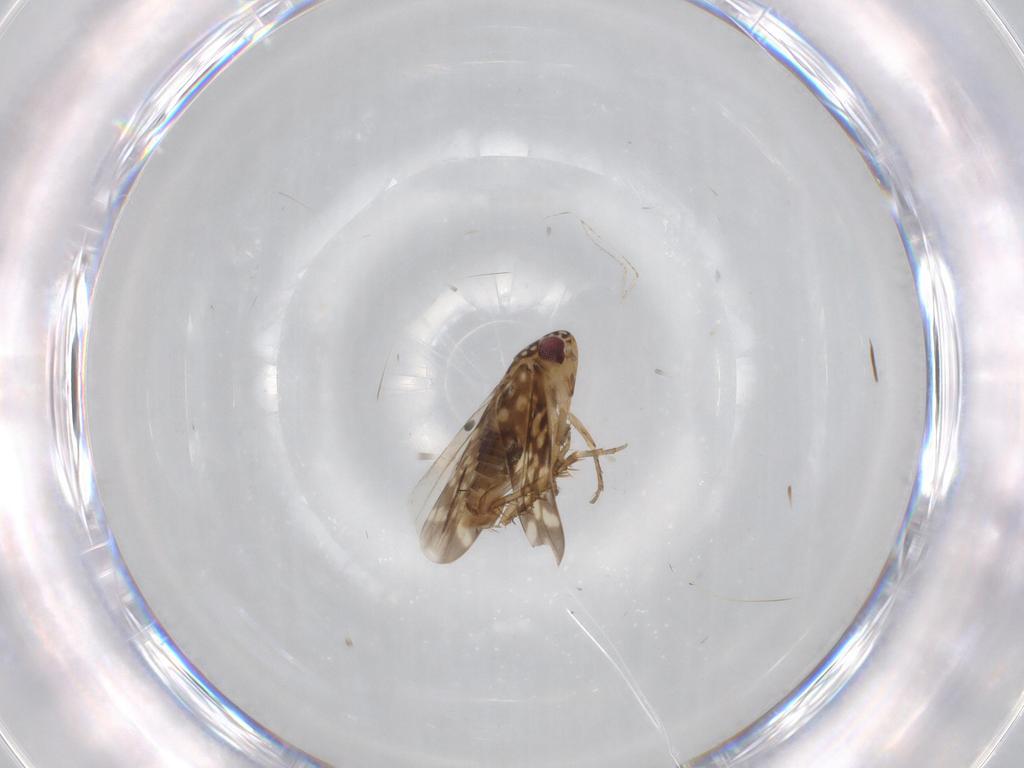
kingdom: Animalia
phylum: Arthropoda
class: Insecta
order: Hemiptera
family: Cicadellidae
